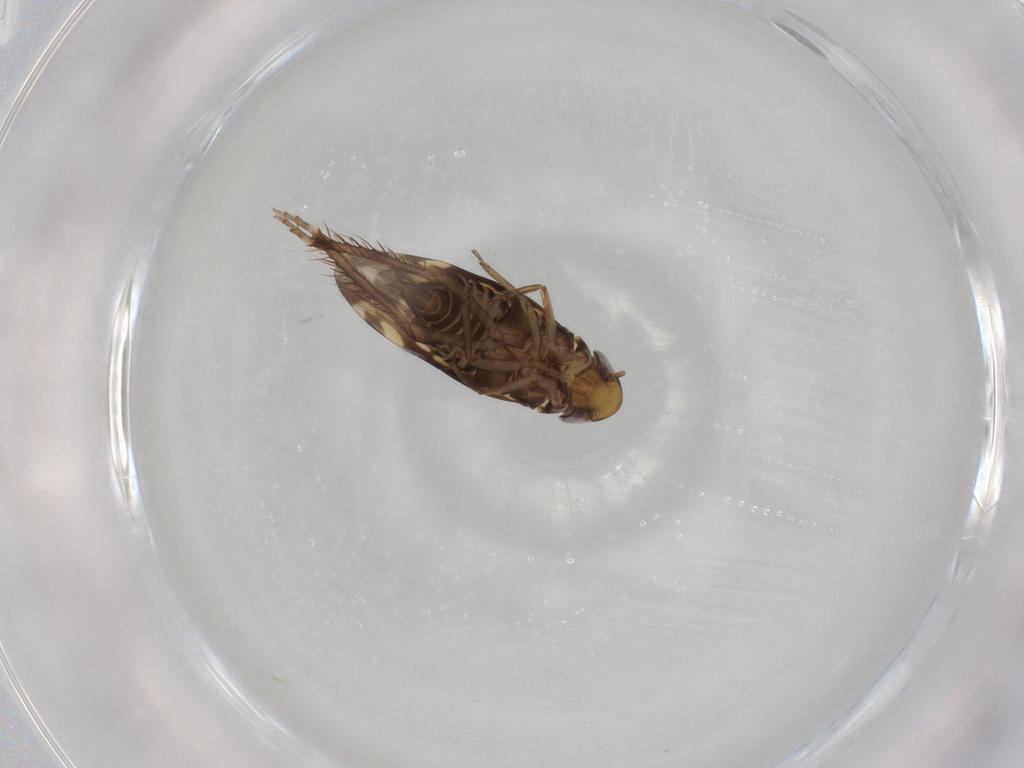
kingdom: Animalia
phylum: Arthropoda
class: Insecta
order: Hemiptera
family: Cicadellidae
